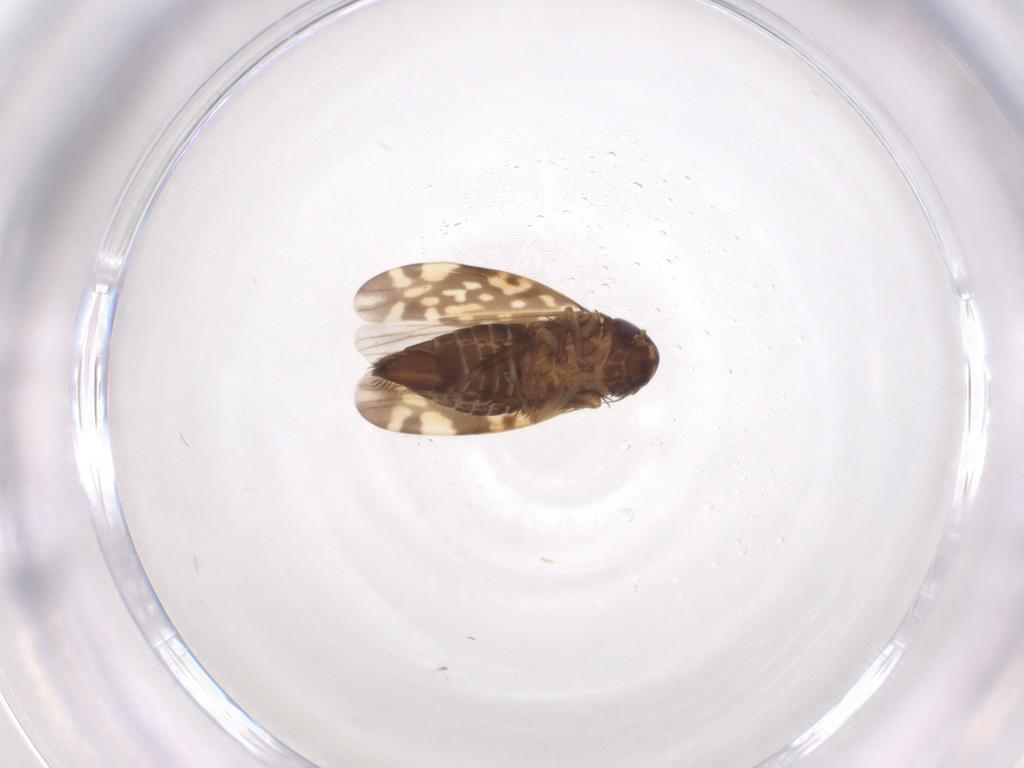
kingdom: Animalia
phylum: Arthropoda
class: Insecta
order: Hemiptera
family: Cicadellidae
